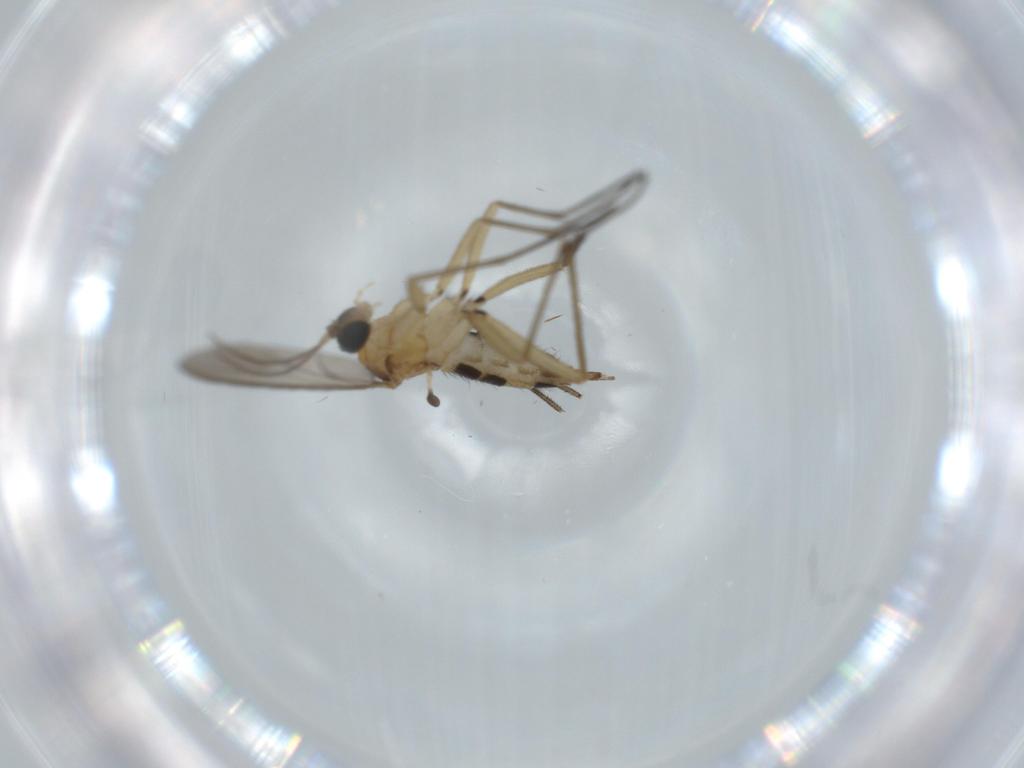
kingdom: Animalia
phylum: Arthropoda
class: Insecta
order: Diptera
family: Sciaridae
